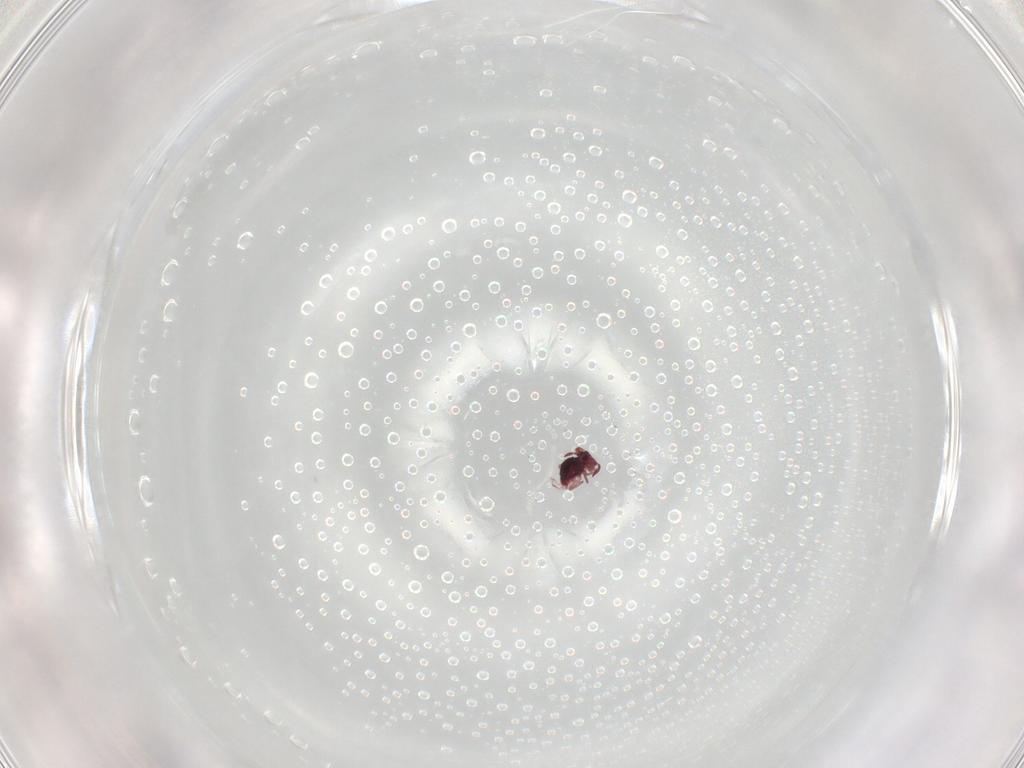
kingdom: Animalia
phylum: Arthropoda
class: Collembola
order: Symphypleona
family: Sminthurididae
